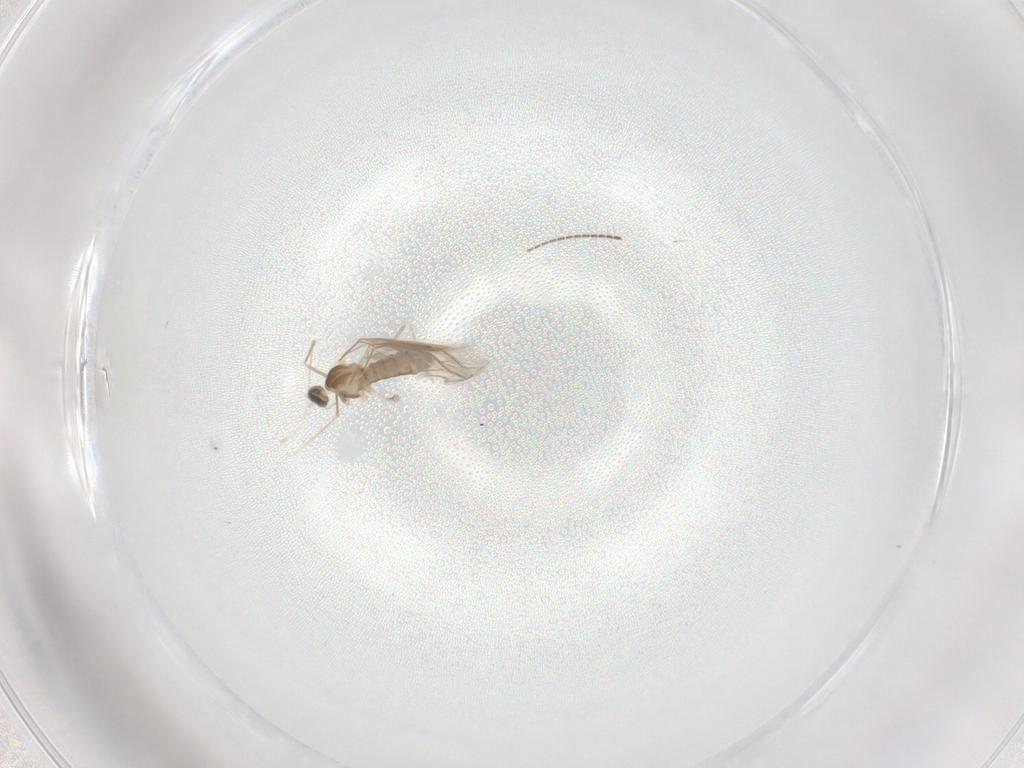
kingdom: Animalia
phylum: Arthropoda
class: Insecta
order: Diptera
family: Cecidomyiidae
